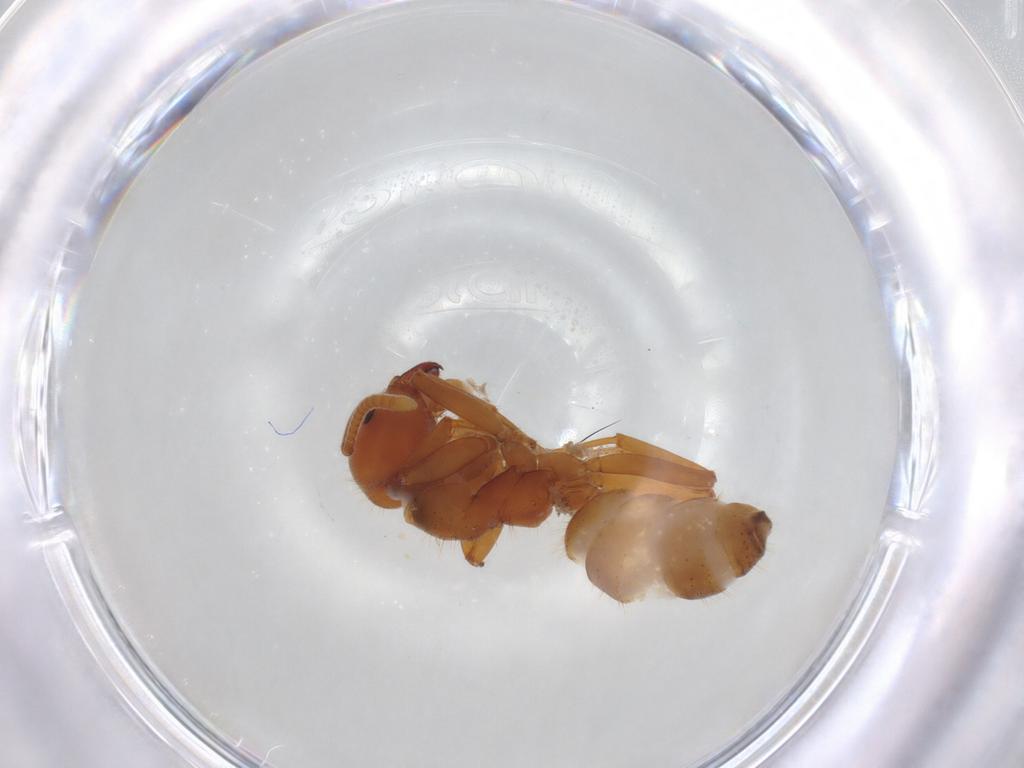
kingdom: Animalia
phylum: Arthropoda
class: Insecta
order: Hymenoptera
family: Formicidae
